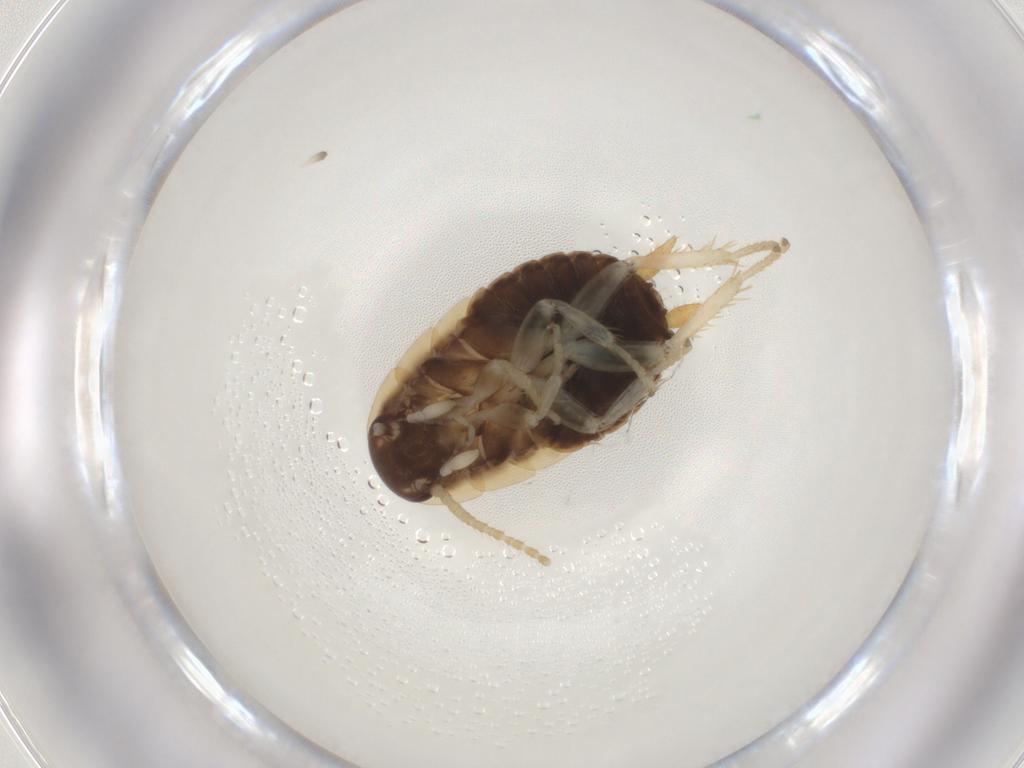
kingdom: Animalia
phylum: Arthropoda
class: Insecta
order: Diptera
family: Chloropidae
